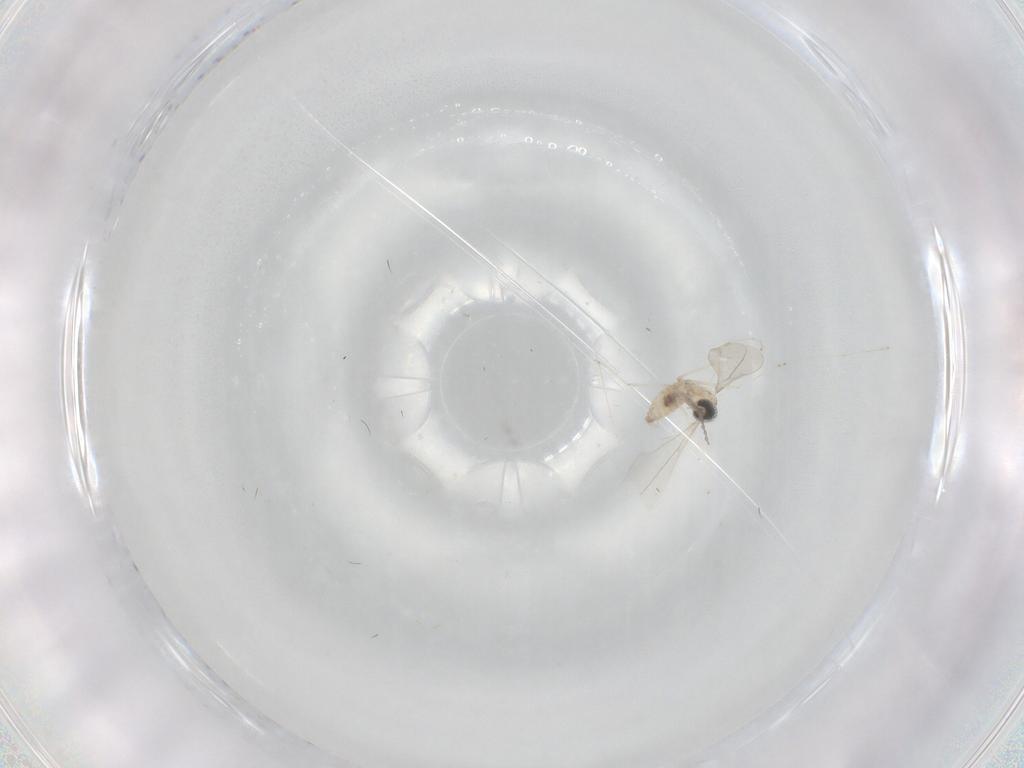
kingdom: Animalia
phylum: Arthropoda
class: Insecta
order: Diptera
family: Cecidomyiidae
